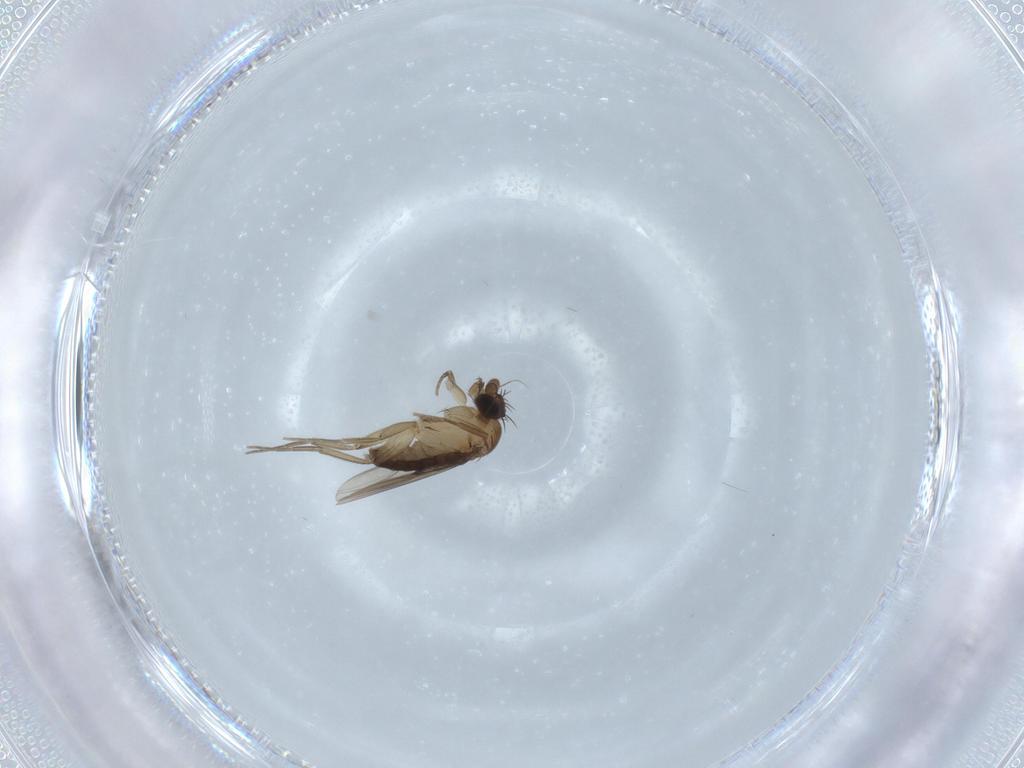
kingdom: Animalia
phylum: Arthropoda
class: Insecta
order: Diptera
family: Phoridae
